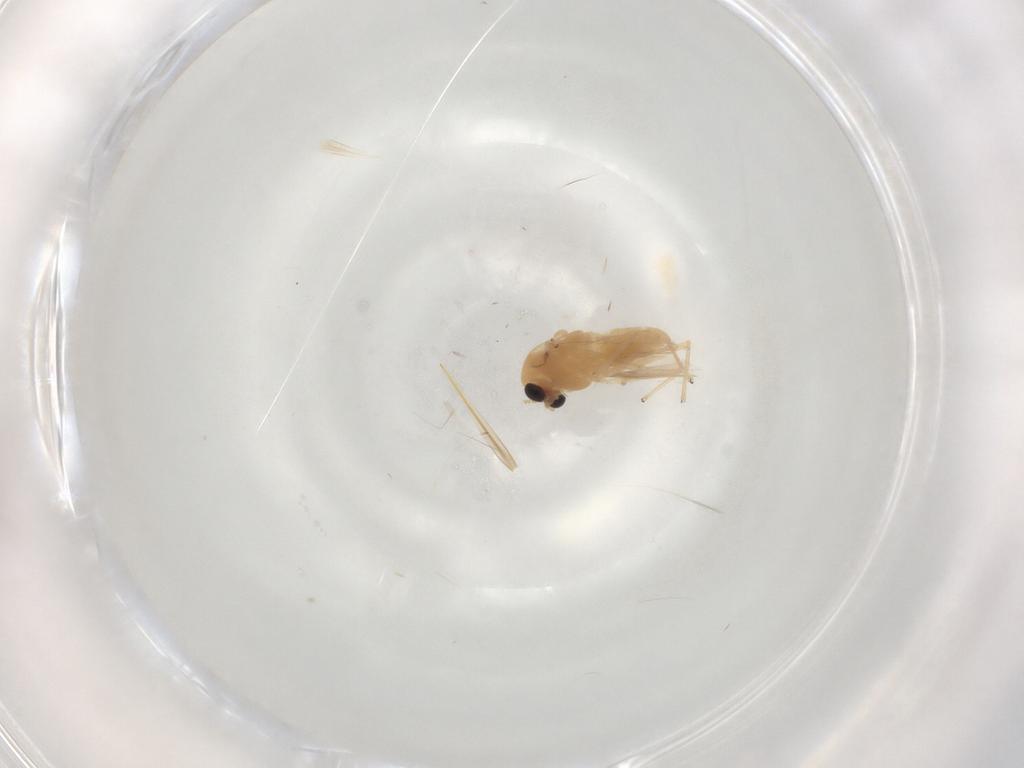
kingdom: Animalia
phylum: Arthropoda
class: Insecta
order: Diptera
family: Chironomidae
